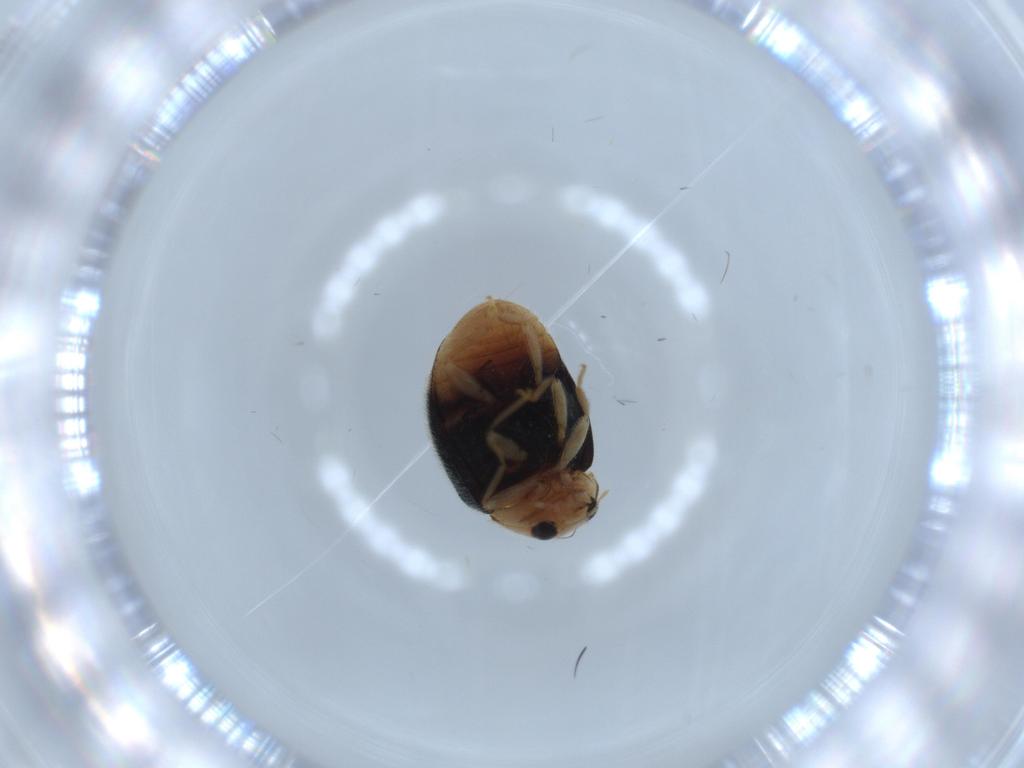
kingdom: Animalia
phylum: Arthropoda
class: Insecta
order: Coleoptera
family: Coccinellidae
